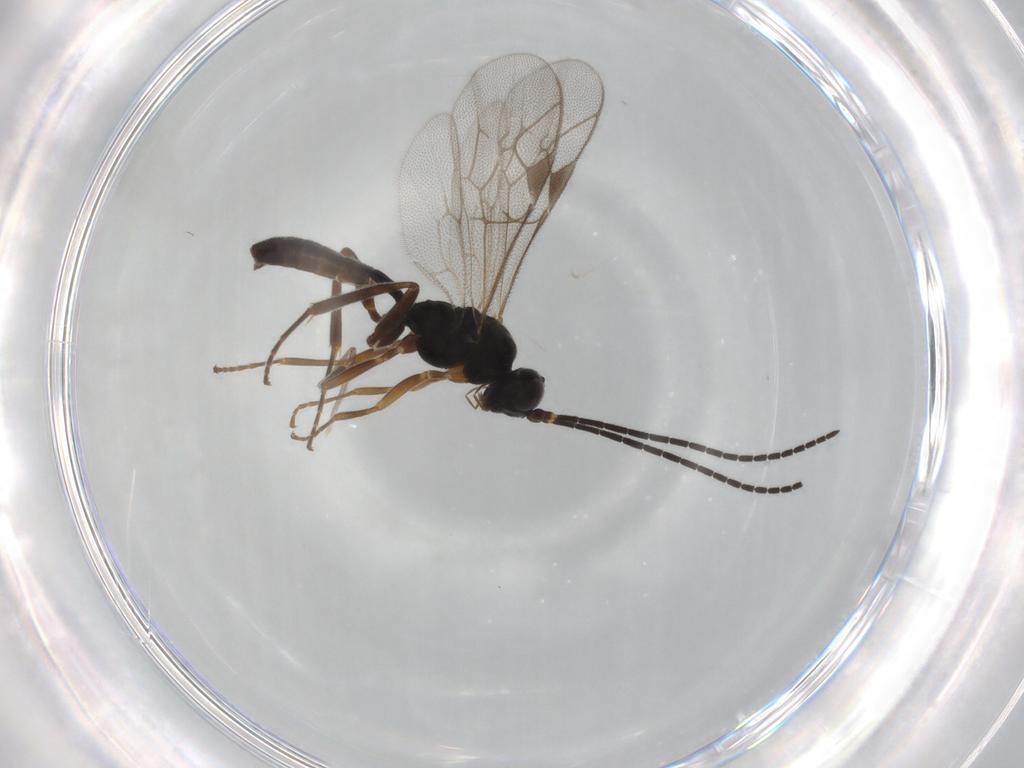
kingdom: Animalia
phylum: Arthropoda
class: Insecta
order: Hymenoptera
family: Ichneumonidae
